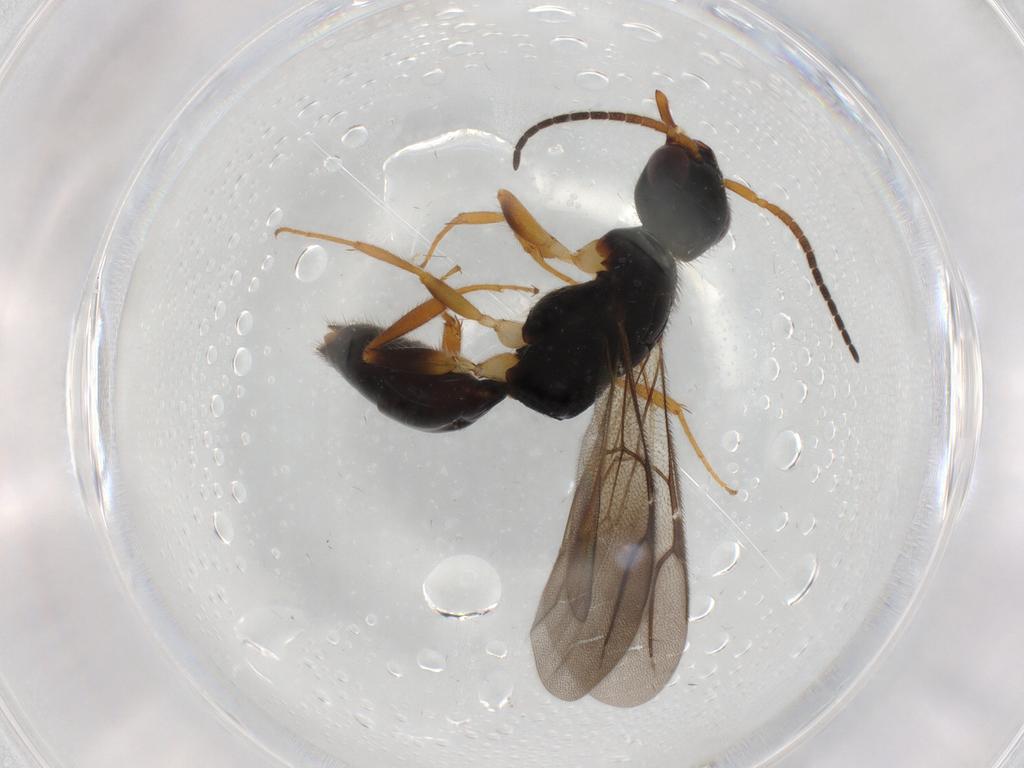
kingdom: Animalia
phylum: Arthropoda
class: Insecta
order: Hymenoptera
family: Bethylidae
